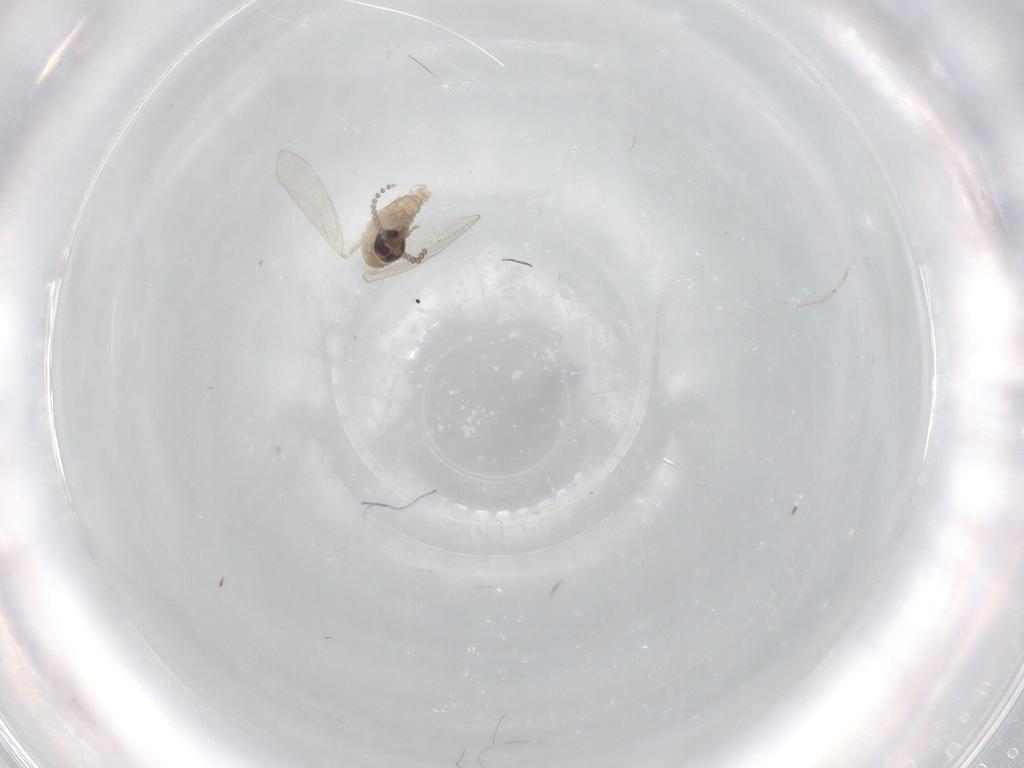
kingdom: Animalia
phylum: Arthropoda
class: Insecta
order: Diptera
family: Psychodidae
